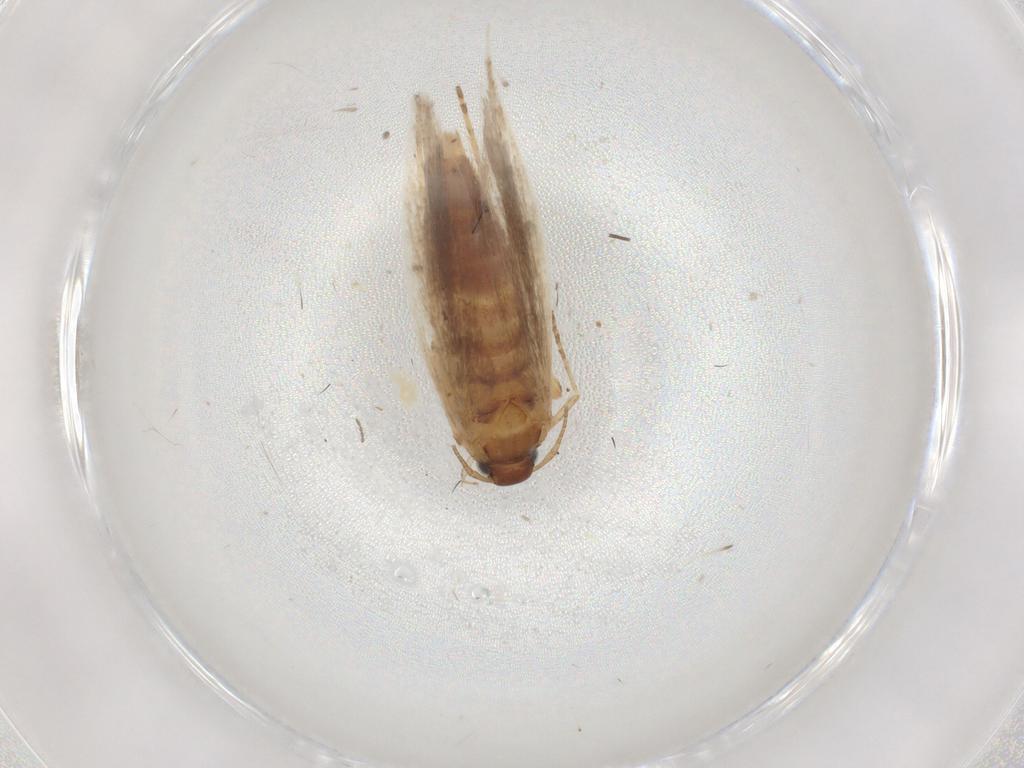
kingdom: Animalia
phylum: Arthropoda
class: Insecta
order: Lepidoptera
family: Gelechiidae
